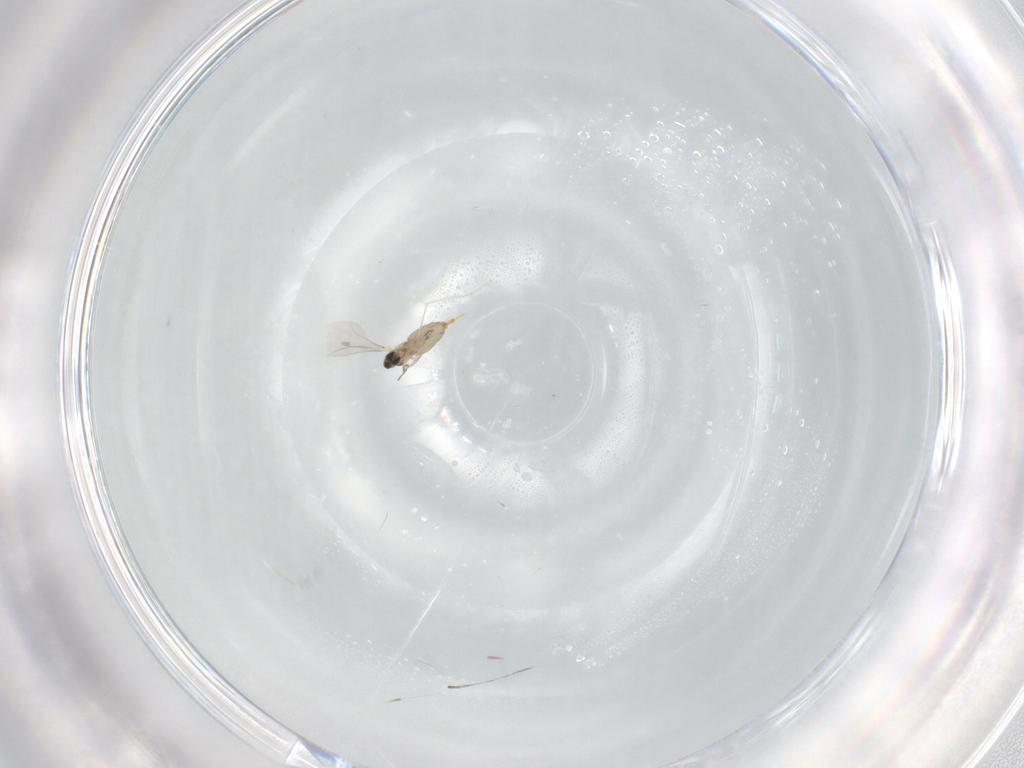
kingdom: Animalia
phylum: Arthropoda
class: Insecta
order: Diptera
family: Cecidomyiidae
